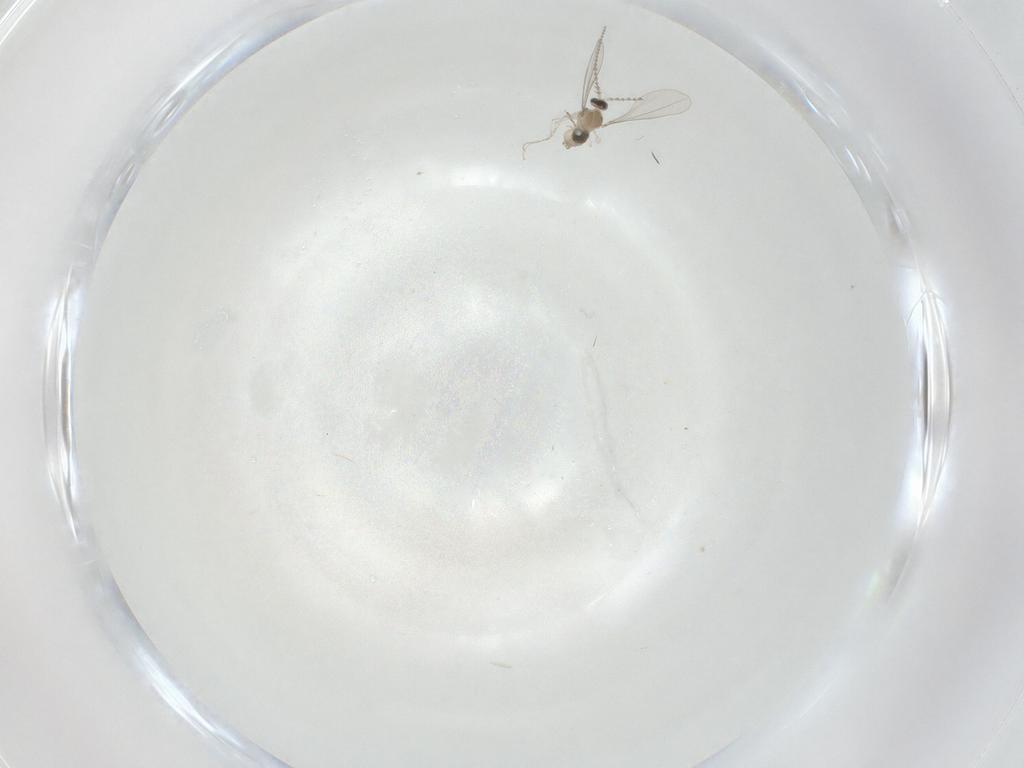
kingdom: Animalia
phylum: Arthropoda
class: Insecta
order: Diptera
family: Cecidomyiidae
